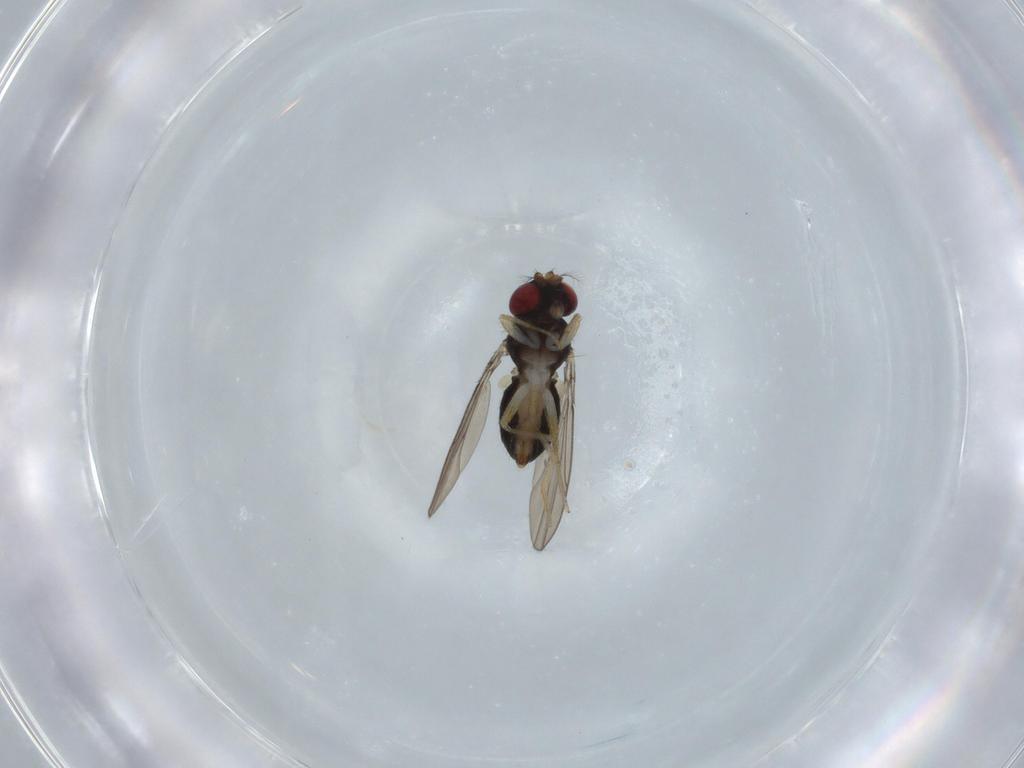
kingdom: Animalia
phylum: Arthropoda
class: Insecta
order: Diptera
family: Drosophilidae
